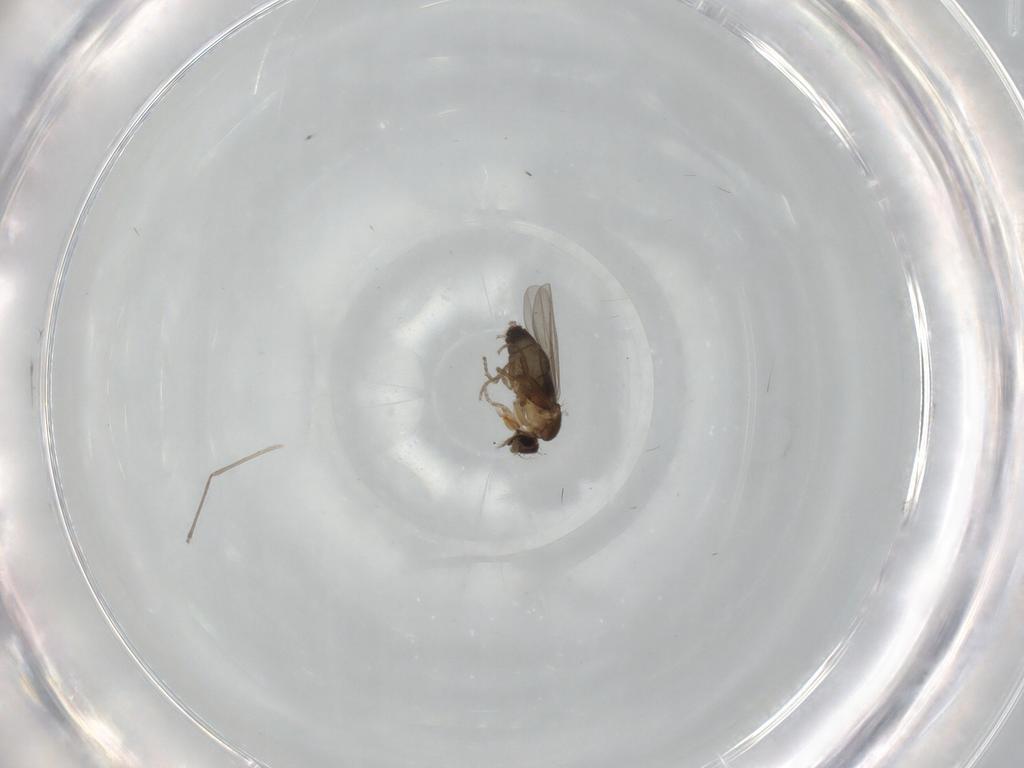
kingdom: Animalia
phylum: Arthropoda
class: Insecta
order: Diptera
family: Phoridae
